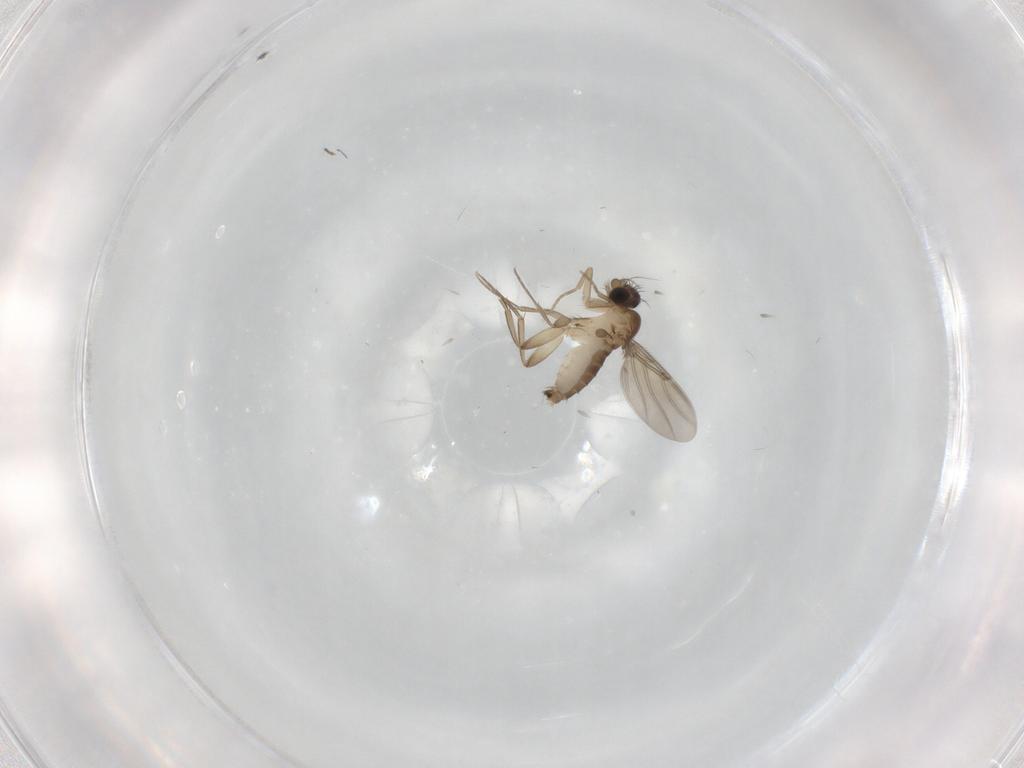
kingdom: Animalia
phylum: Arthropoda
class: Insecta
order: Diptera
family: Phoridae
